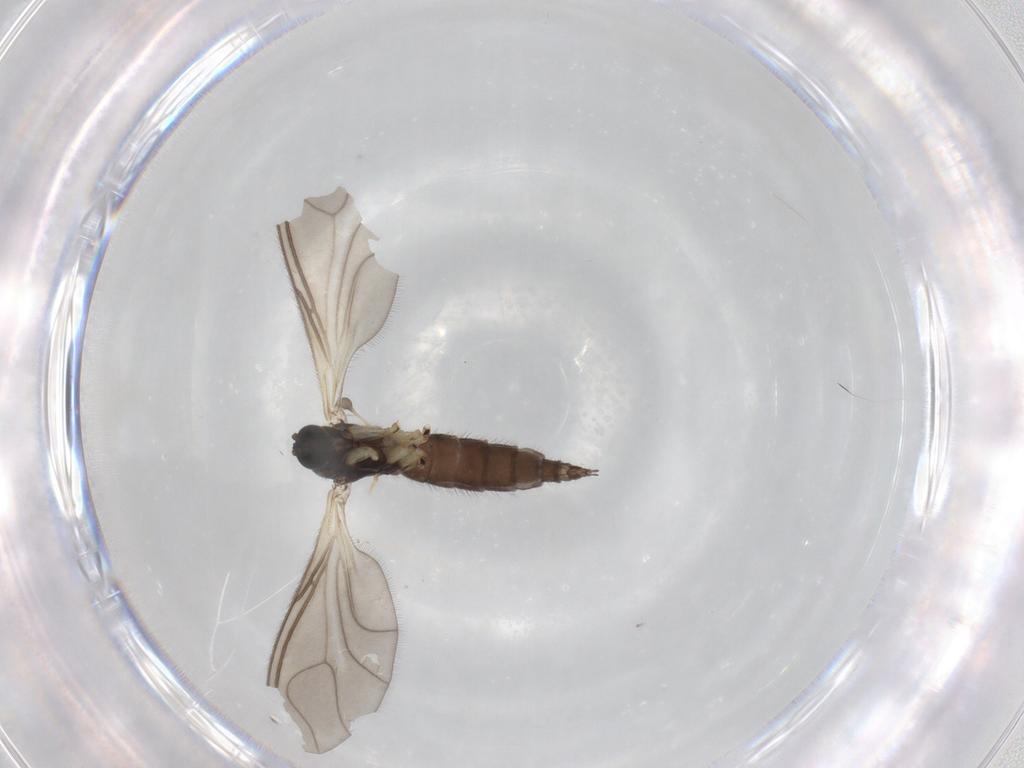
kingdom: Animalia
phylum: Arthropoda
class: Insecta
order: Diptera
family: Sciaridae
